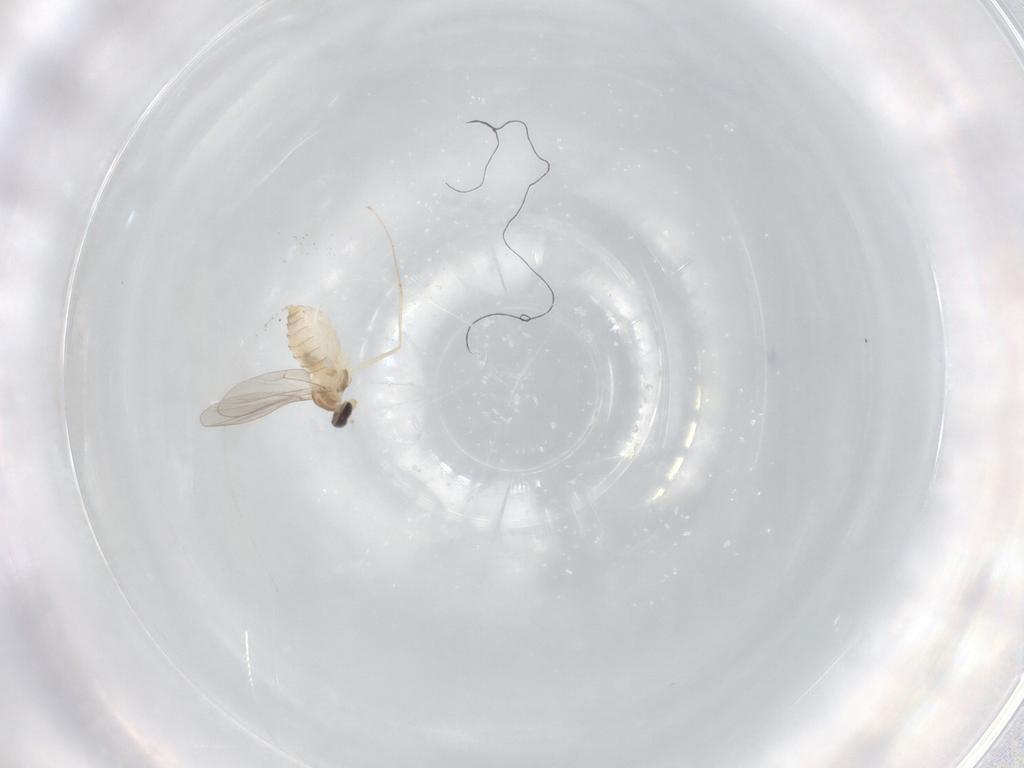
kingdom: Animalia
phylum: Arthropoda
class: Insecta
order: Diptera
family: Cecidomyiidae
